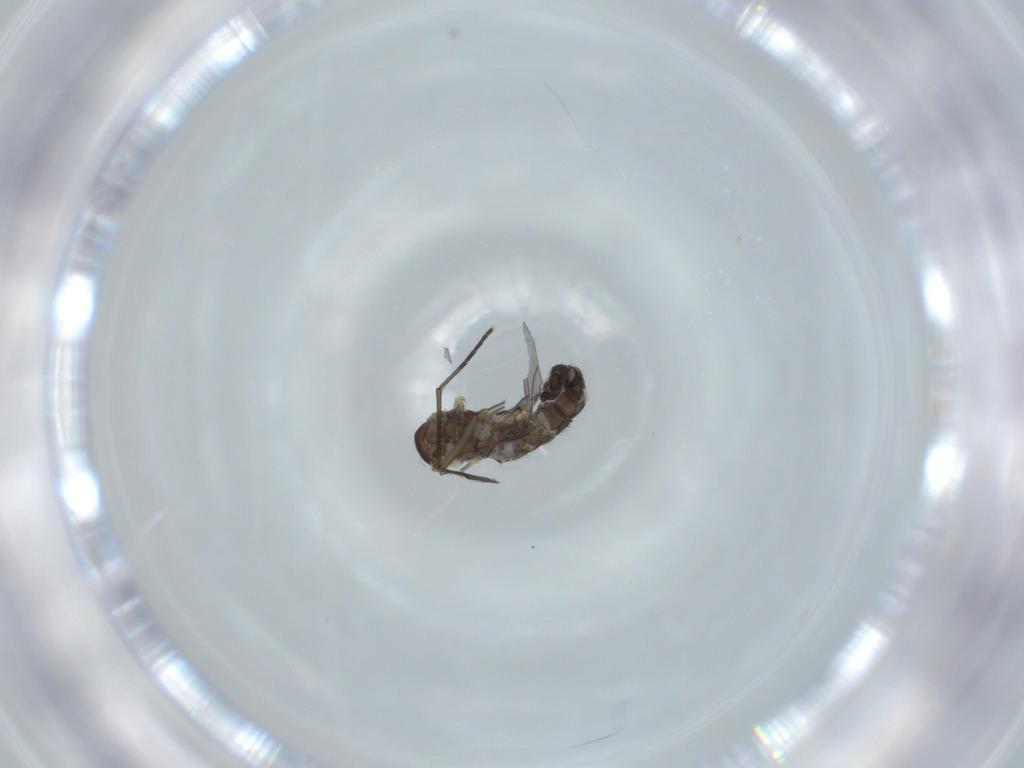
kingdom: Animalia
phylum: Arthropoda
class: Insecta
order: Diptera
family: Sciaridae
